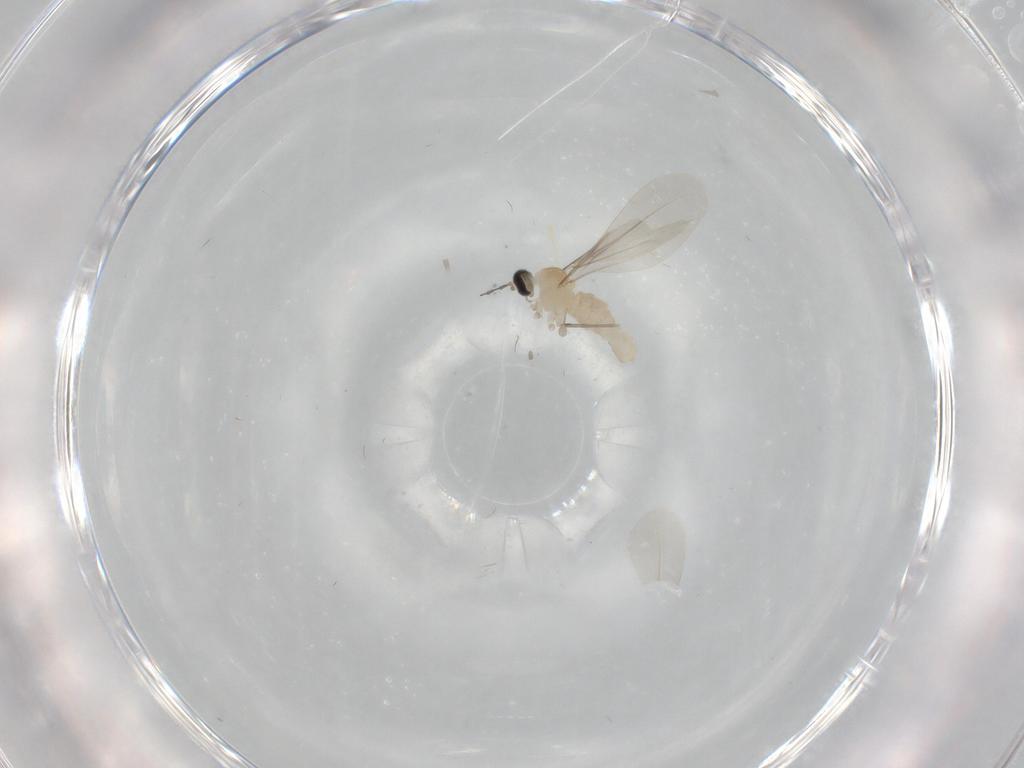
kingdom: Animalia
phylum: Arthropoda
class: Insecta
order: Diptera
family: Cecidomyiidae
